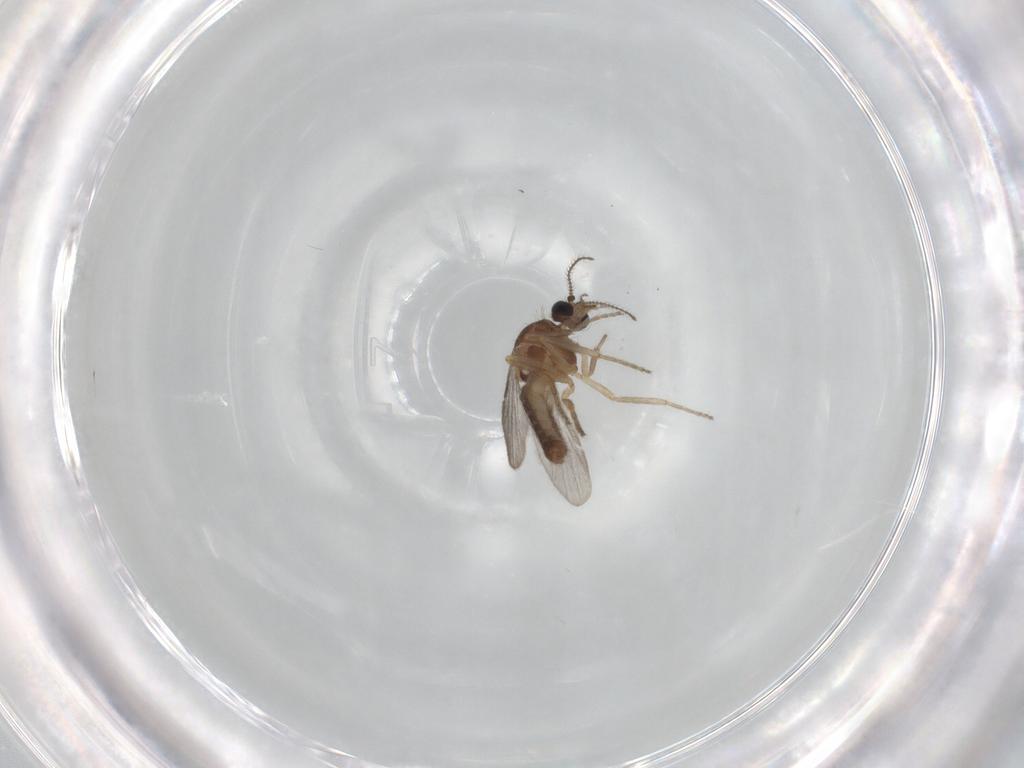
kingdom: Animalia
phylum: Arthropoda
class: Insecta
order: Diptera
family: Ceratopogonidae
